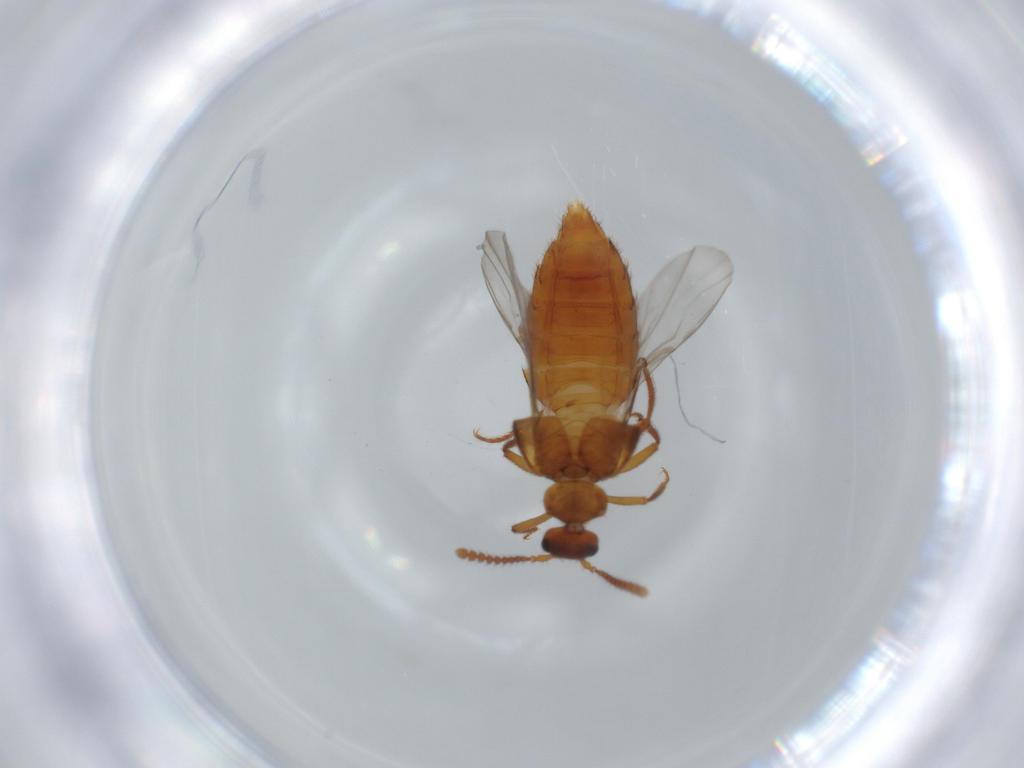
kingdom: Animalia
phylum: Arthropoda
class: Insecta
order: Coleoptera
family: Staphylinidae
